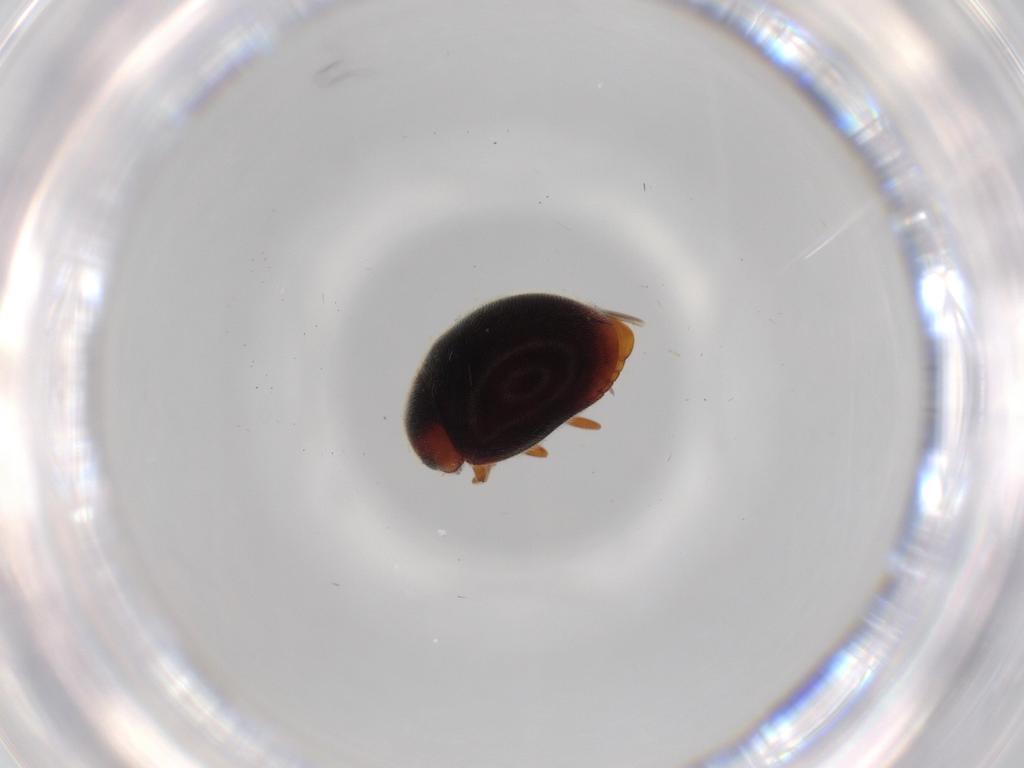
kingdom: Animalia
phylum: Arthropoda
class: Insecta
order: Coleoptera
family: Coccinellidae
